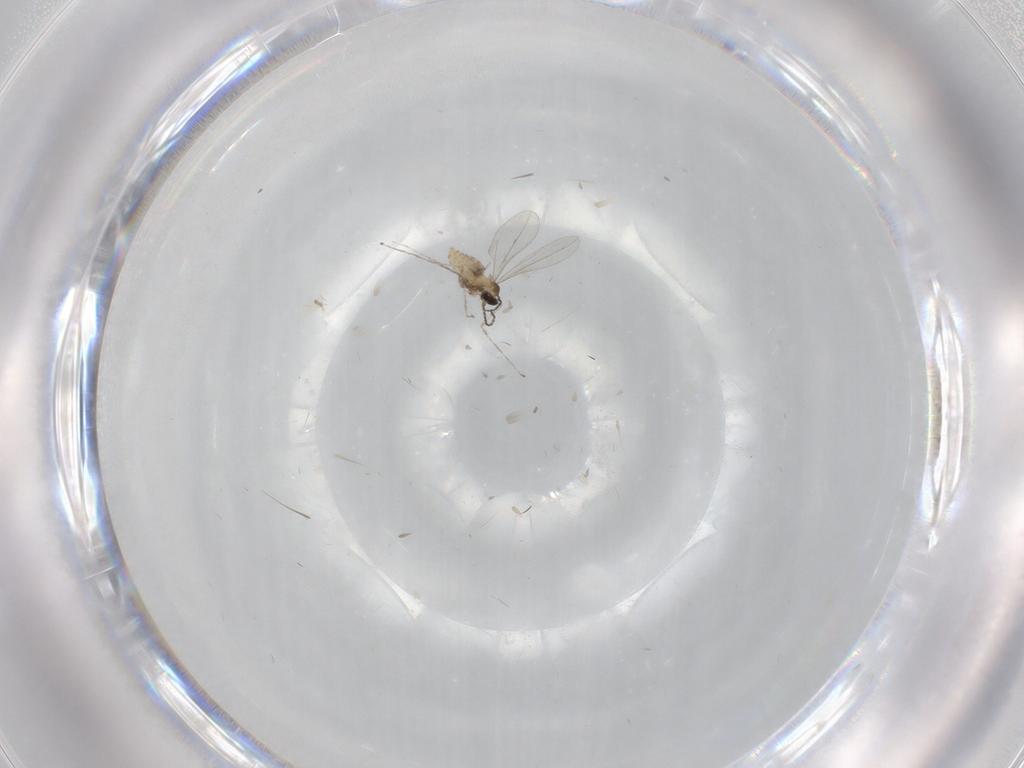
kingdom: Animalia
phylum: Arthropoda
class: Insecta
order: Diptera
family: Cecidomyiidae
